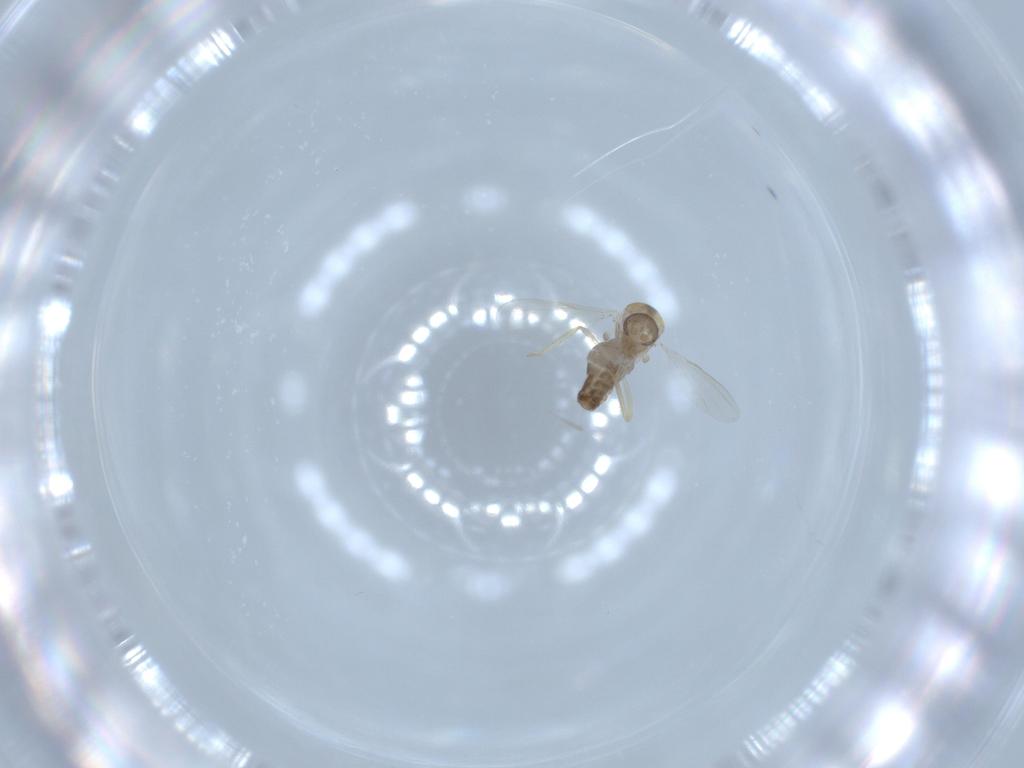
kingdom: Animalia
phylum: Arthropoda
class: Insecta
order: Diptera
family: Ceratopogonidae
